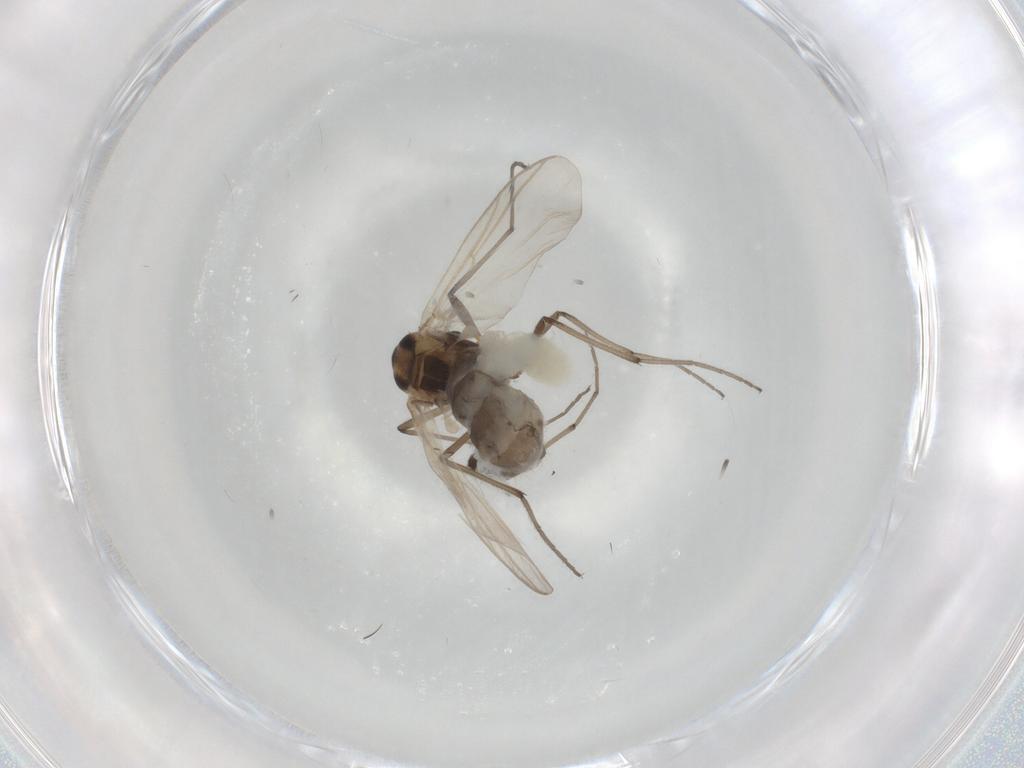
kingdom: Animalia
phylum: Arthropoda
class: Insecta
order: Diptera
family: Chironomidae
